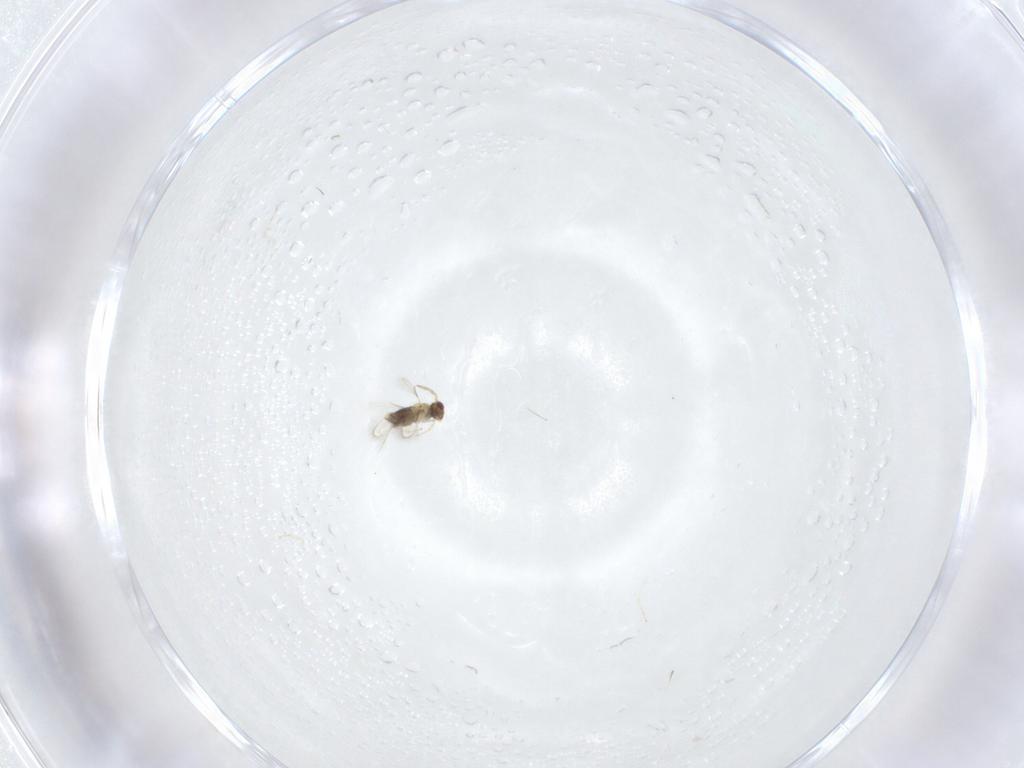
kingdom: Animalia
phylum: Arthropoda
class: Insecta
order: Hymenoptera
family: Aphelinidae
